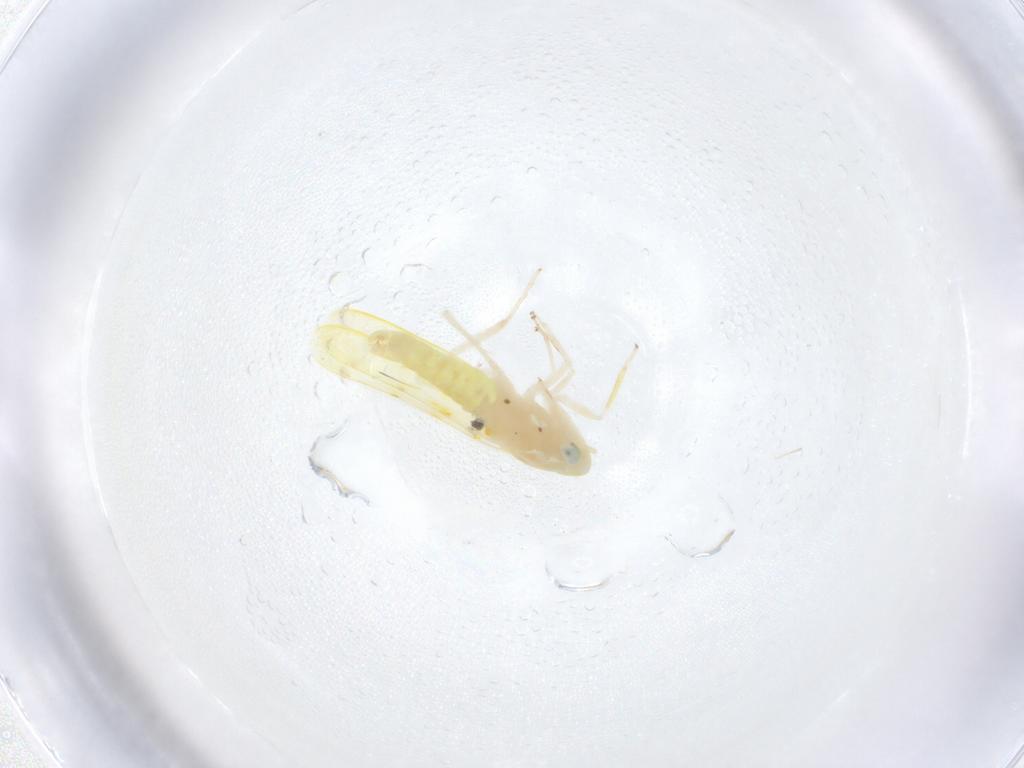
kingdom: Animalia
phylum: Arthropoda
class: Insecta
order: Hemiptera
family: Cicadellidae
